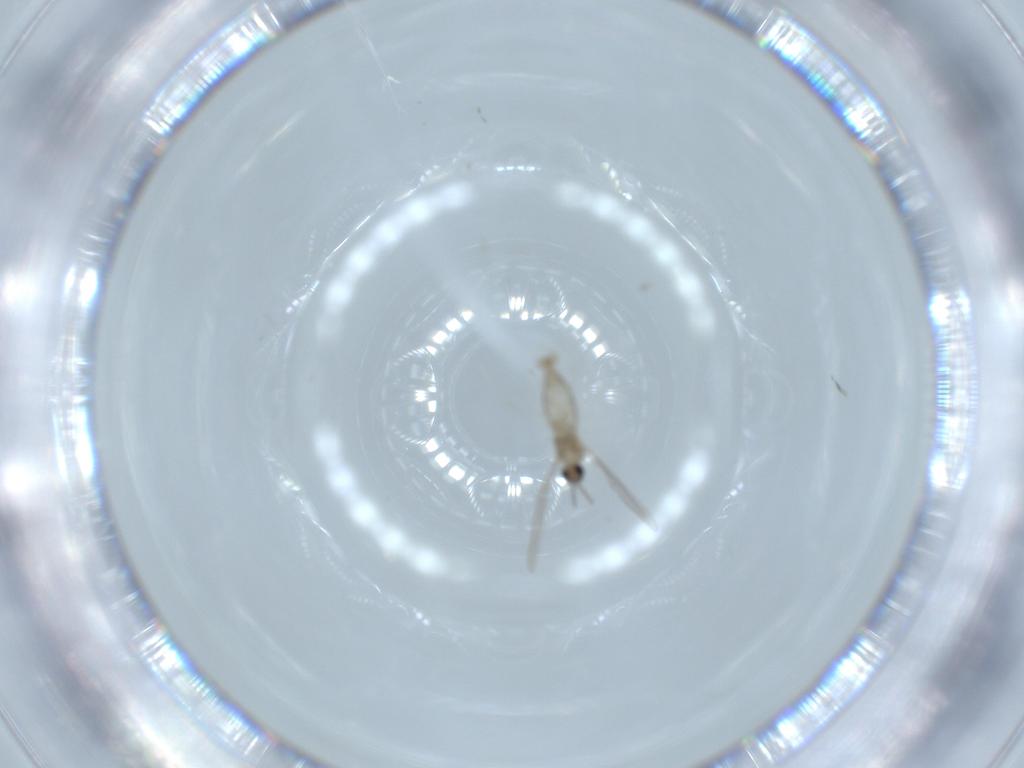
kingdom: Animalia
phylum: Arthropoda
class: Insecta
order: Diptera
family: Cecidomyiidae
